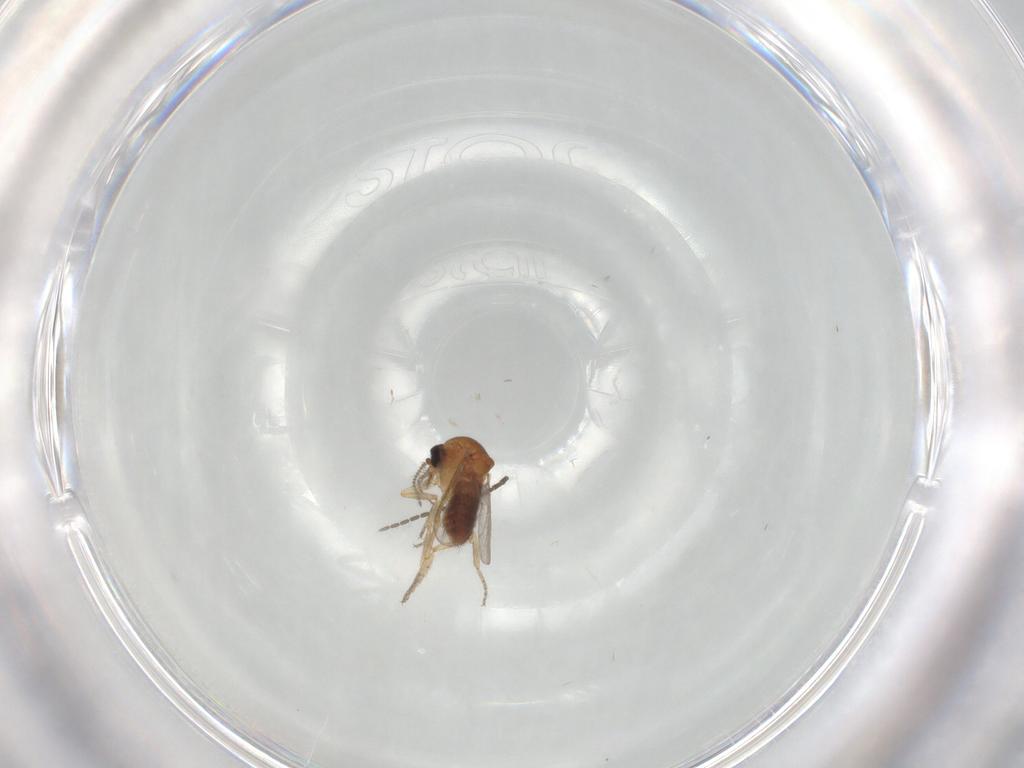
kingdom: Animalia
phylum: Arthropoda
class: Insecta
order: Diptera
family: Ceratopogonidae
